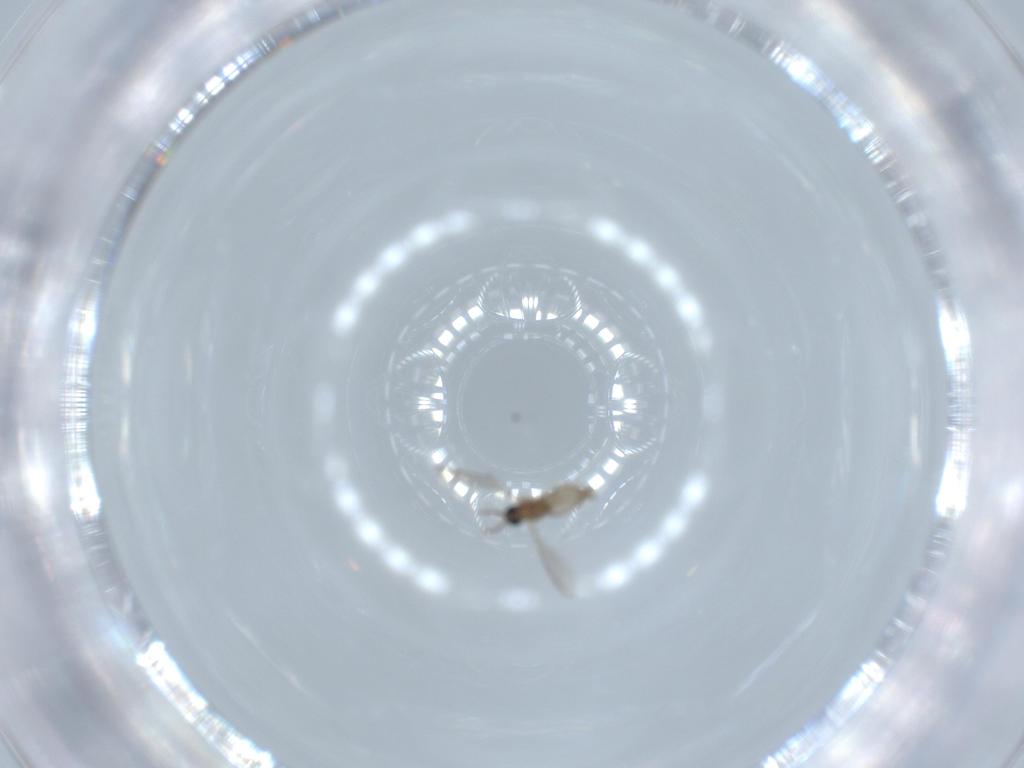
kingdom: Animalia
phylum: Arthropoda
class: Insecta
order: Diptera
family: Cecidomyiidae
